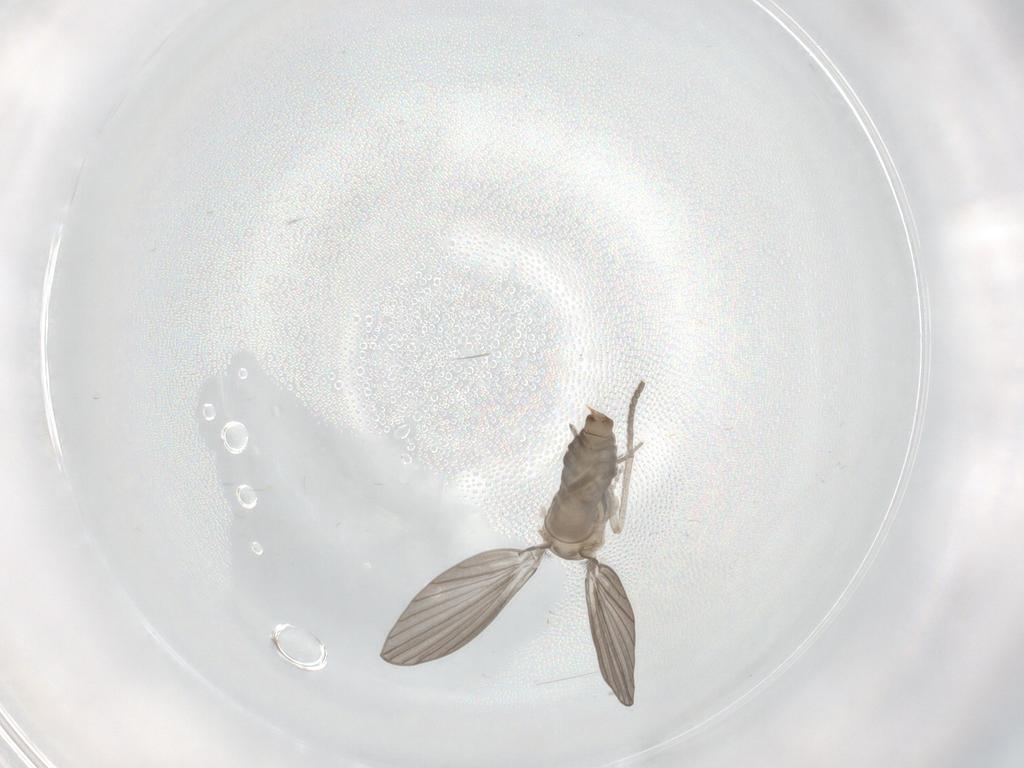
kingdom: Animalia
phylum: Arthropoda
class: Insecta
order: Diptera
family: Psychodidae
